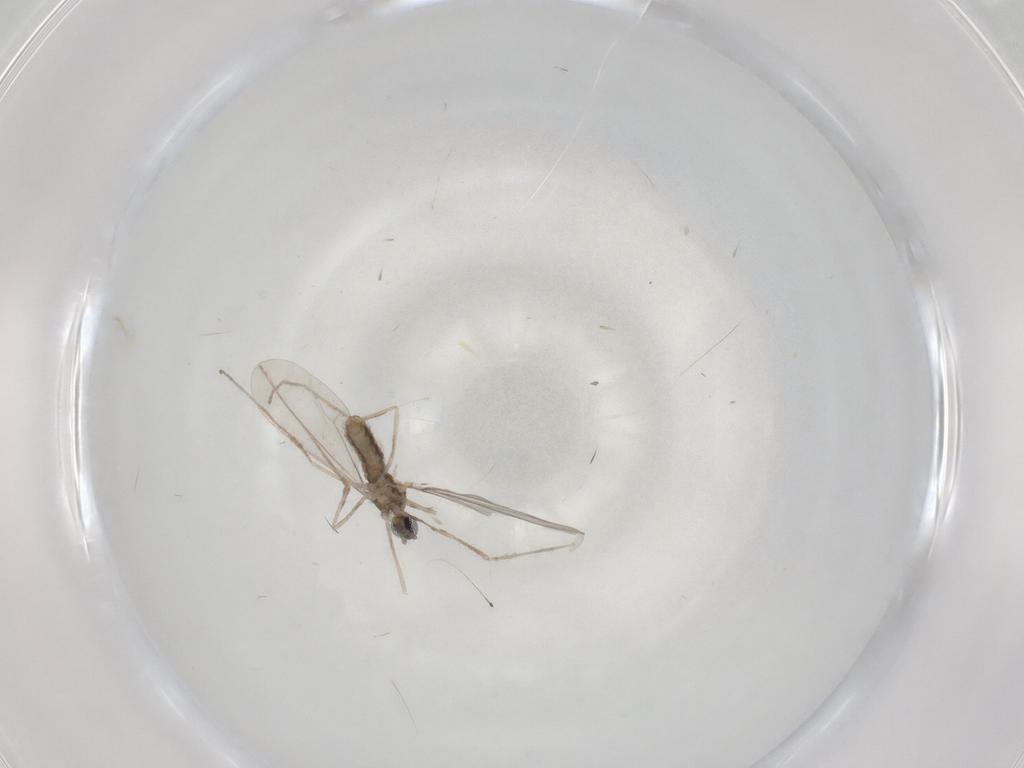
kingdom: Animalia
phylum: Arthropoda
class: Insecta
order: Diptera
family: Cecidomyiidae
